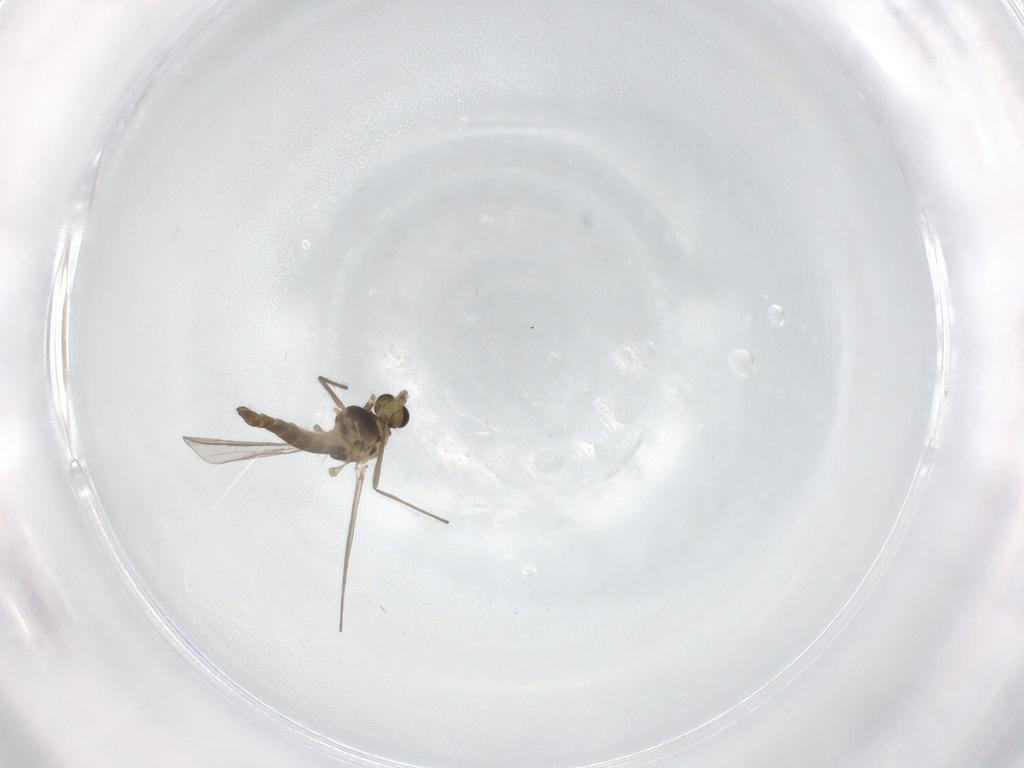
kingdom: Animalia
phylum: Arthropoda
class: Insecta
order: Diptera
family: Chironomidae
